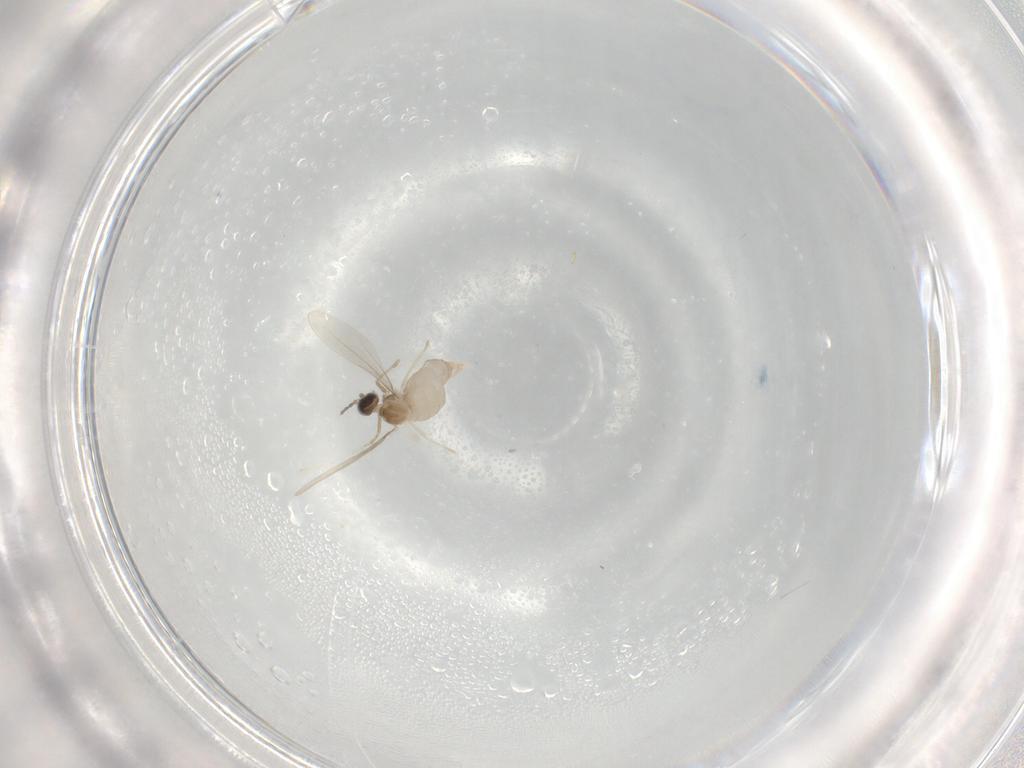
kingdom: Animalia
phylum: Arthropoda
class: Insecta
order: Diptera
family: Cecidomyiidae
